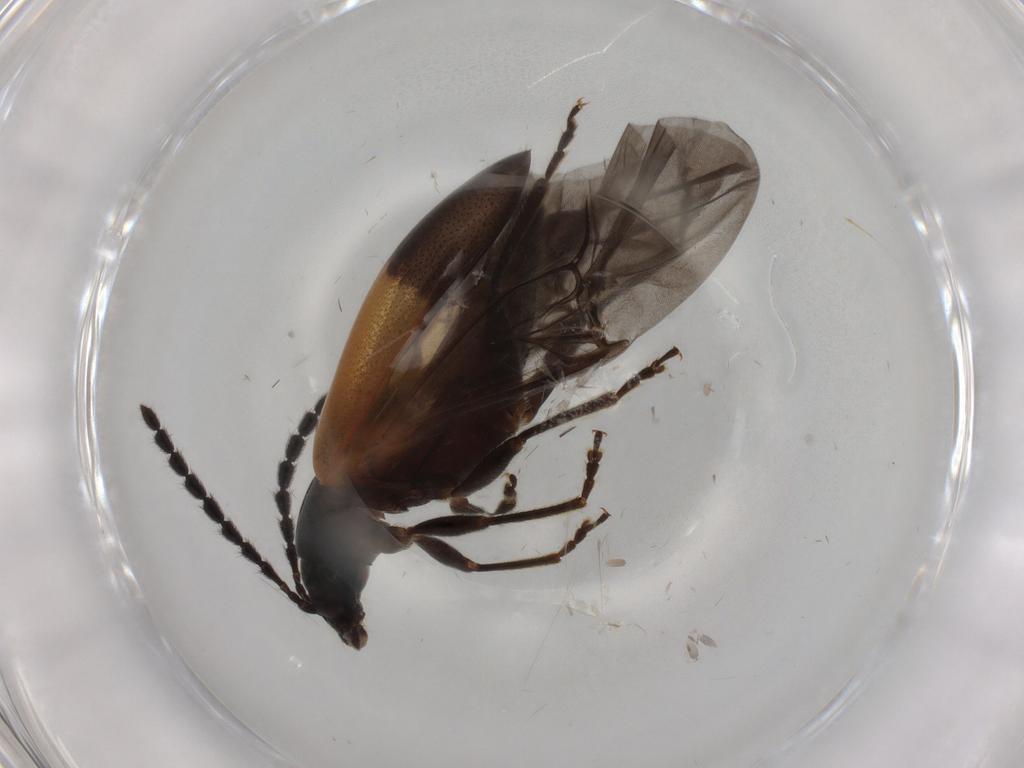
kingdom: Animalia
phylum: Arthropoda
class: Insecta
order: Coleoptera
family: Chrysomelidae
